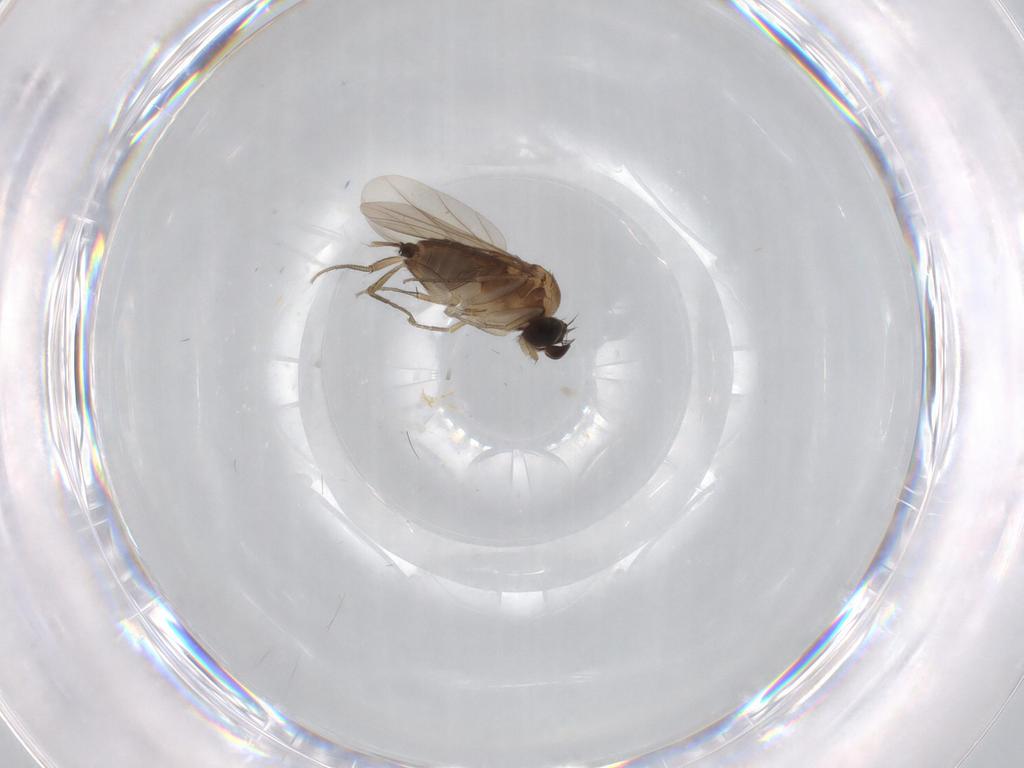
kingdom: Animalia
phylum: Arthropoda
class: Insecta
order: Diptera
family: Phoridae
